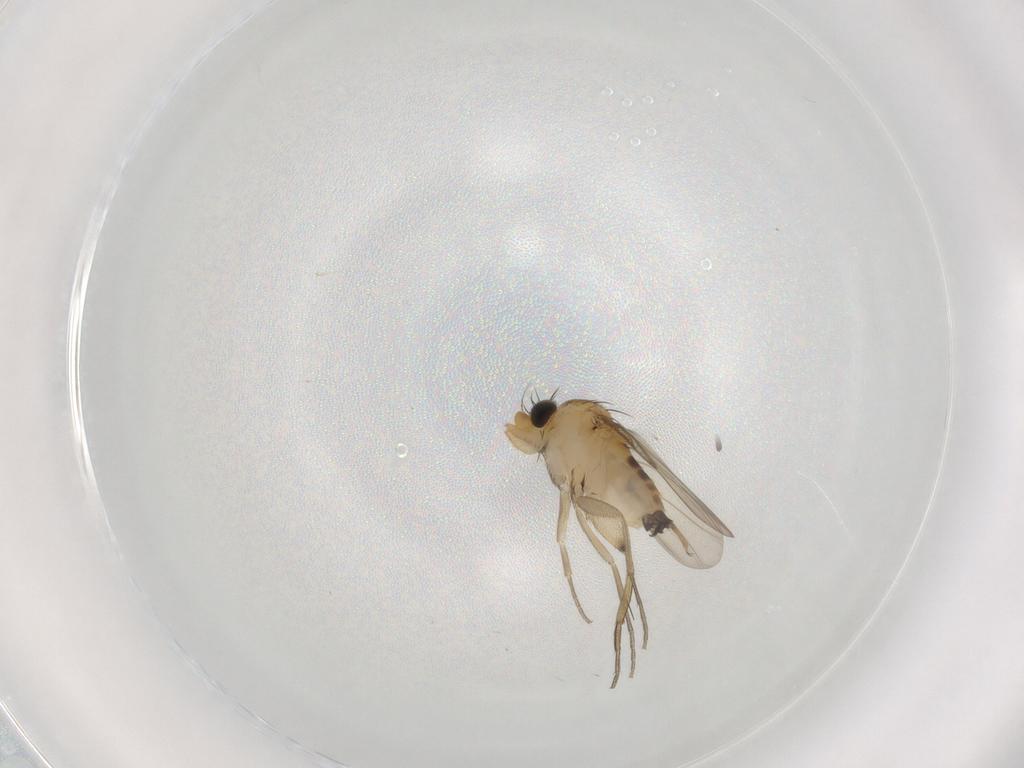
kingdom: Animalia
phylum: Arthropoda
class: Insecta
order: Diptera
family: Phoridae
